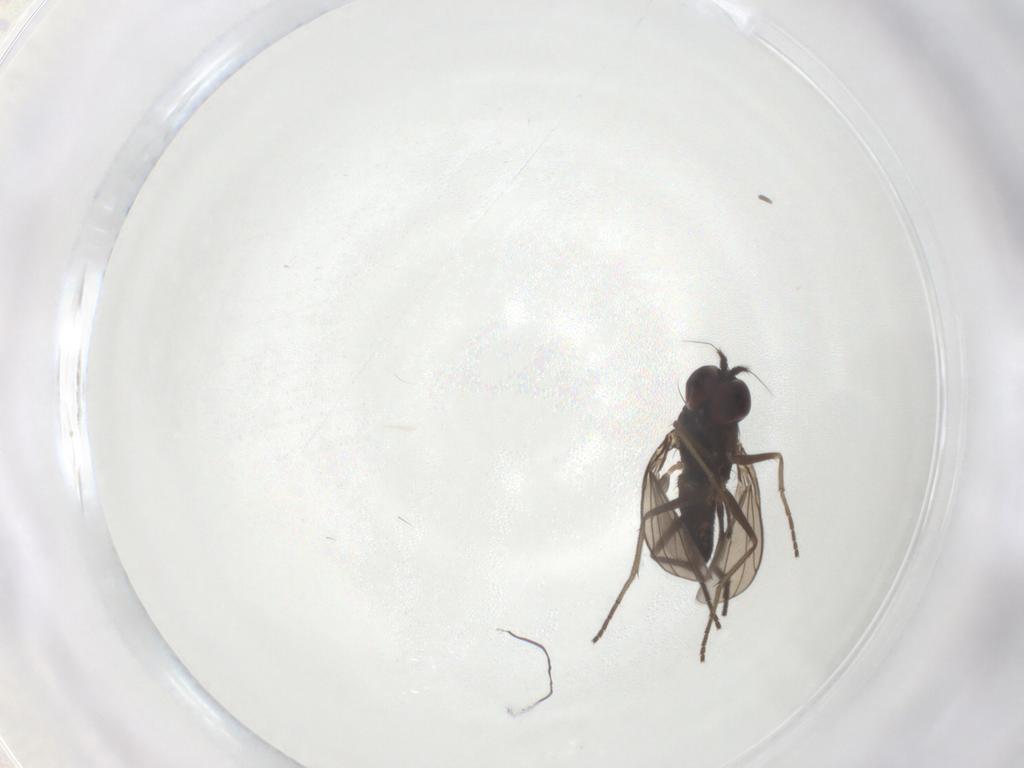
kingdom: Animalia
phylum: Arthropoda
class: Insecta
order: Diptera
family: Dolichopodidae
